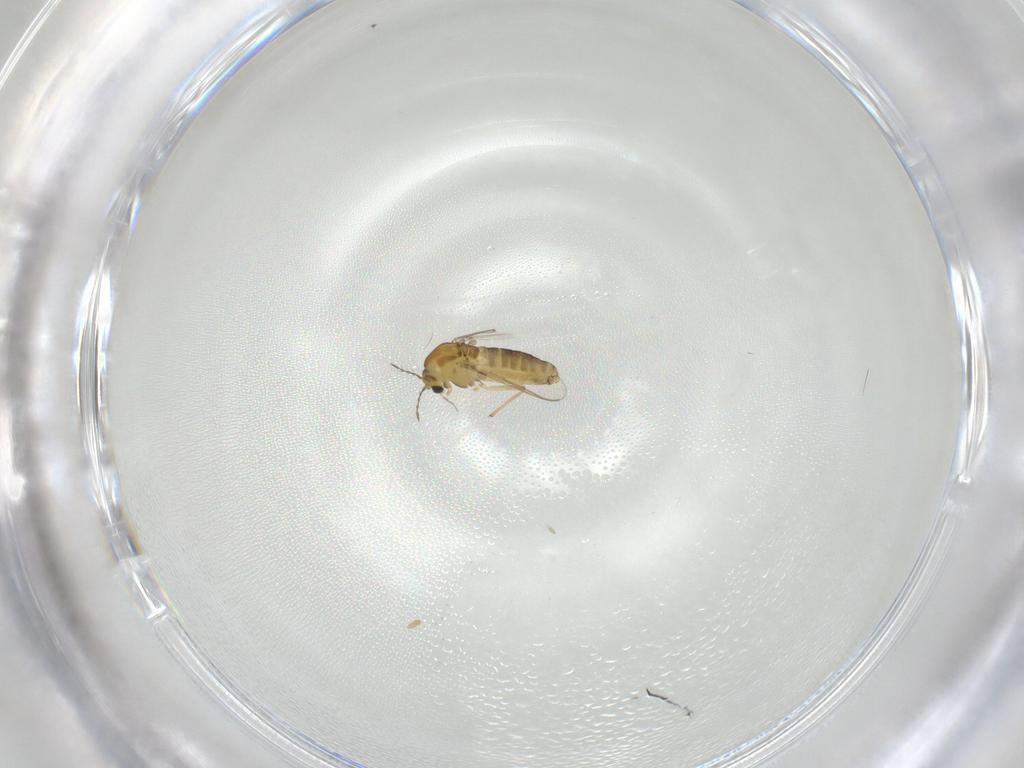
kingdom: Animalia
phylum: Arthropoda
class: Insecta
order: Diptera
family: Chironomidae
